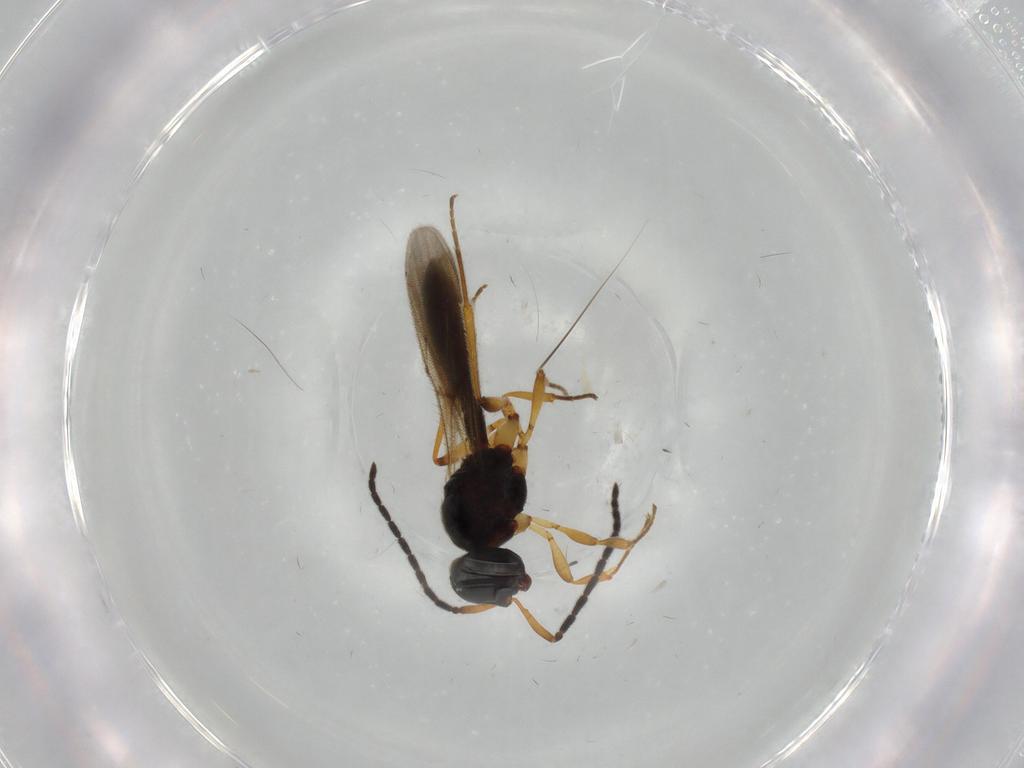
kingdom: Animalia
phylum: Arthropoda
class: Insecta
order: Hymenoptera
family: Scelionidae
